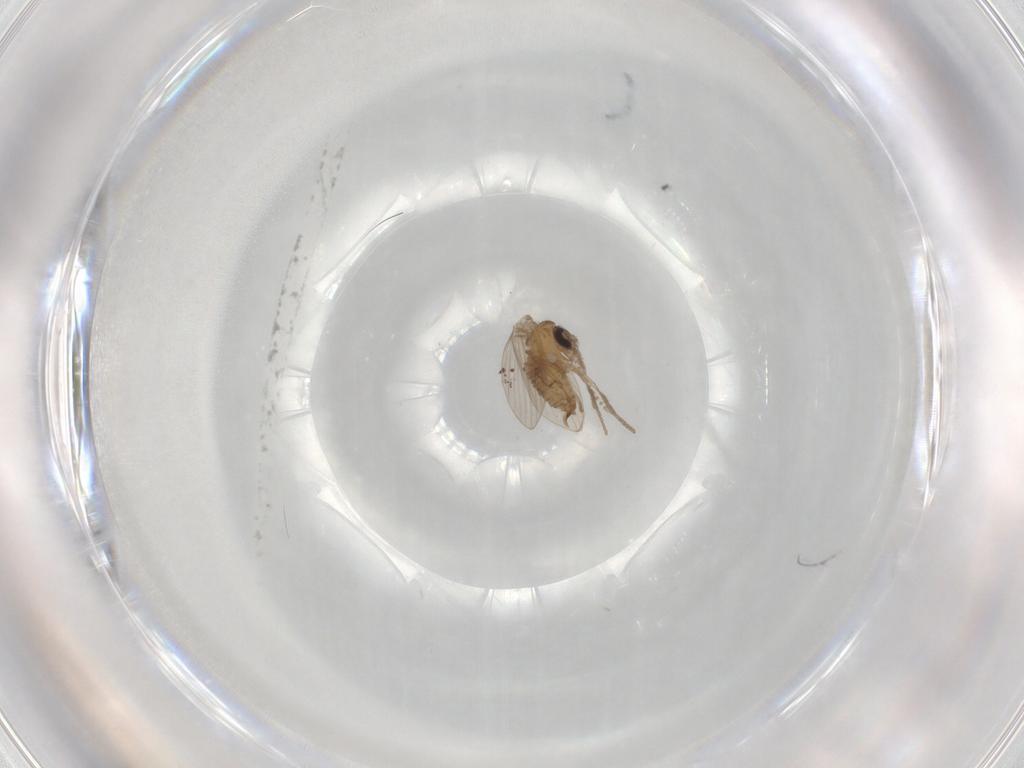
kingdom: Animalia
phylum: Arthropoda
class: Insecta
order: Diptera
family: Psychodidae
